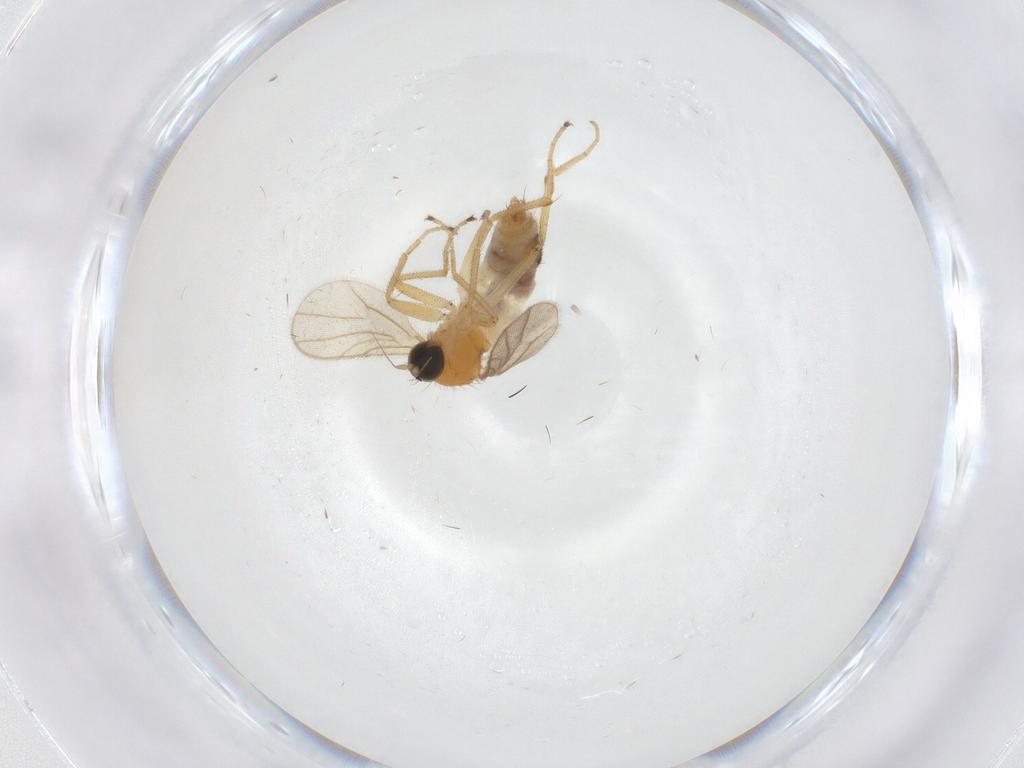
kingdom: Animalia
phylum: Arthropoda
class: Insecta
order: Diptera
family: Hybotidae
